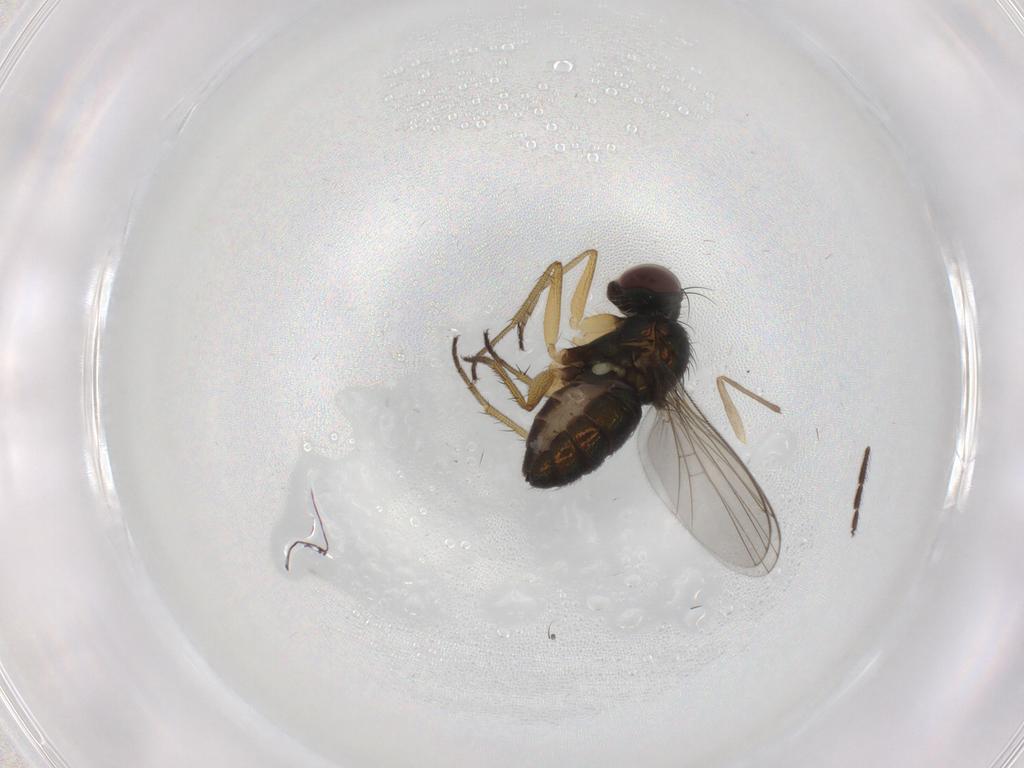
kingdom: Animalia
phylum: Arthropoda
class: Insecta
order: Diptera
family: Chironomidae
